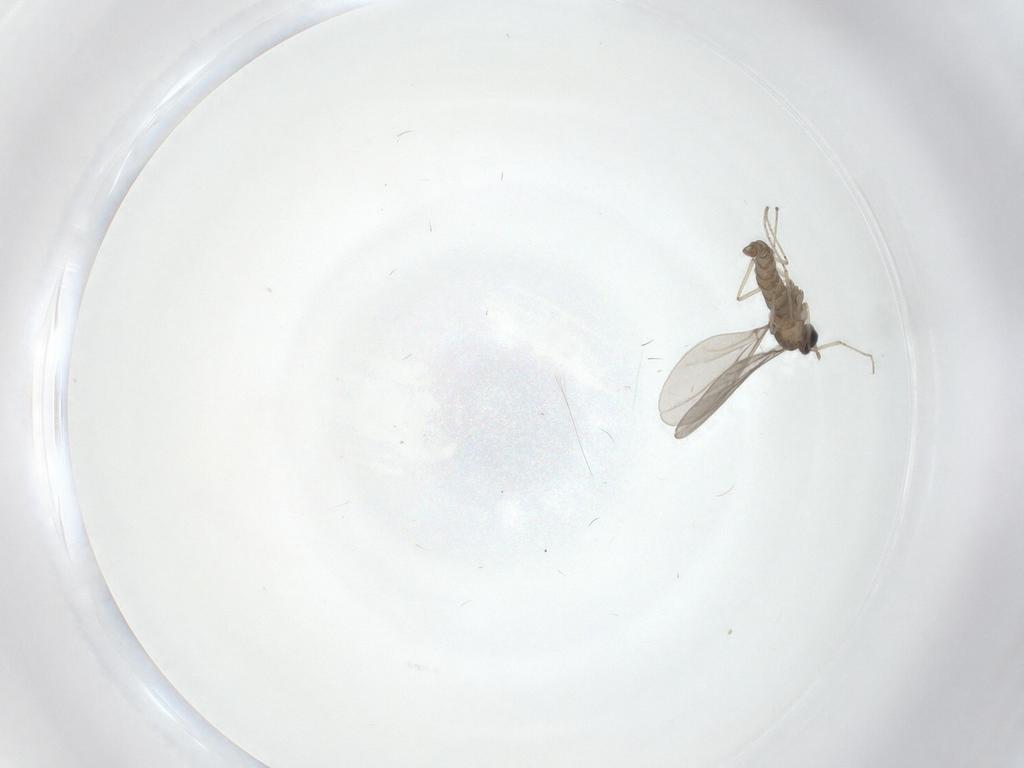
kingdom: Animalia
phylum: Arthropoda
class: Insecta
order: Diptera
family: Cecidomyiidae
